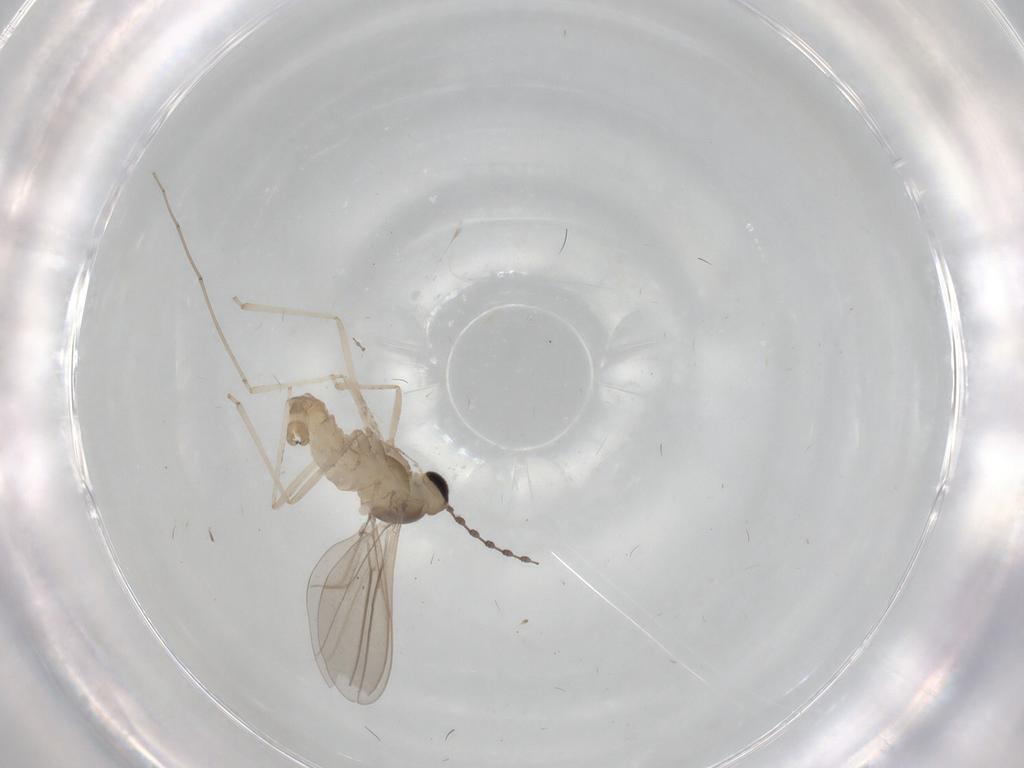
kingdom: Animalia
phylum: Arthropoda
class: Insecta
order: Diptera
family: Cecidomyiidae
